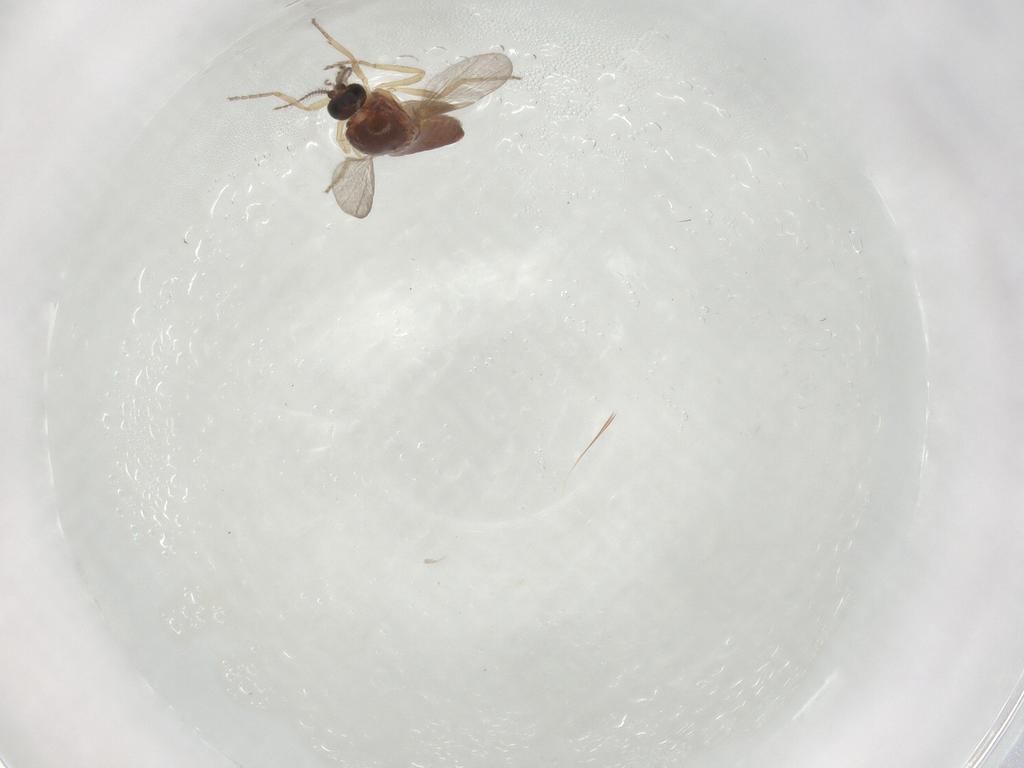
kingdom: Animalia
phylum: Arthropoda
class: Insecta
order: Diptera
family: Ceratopogonidae
